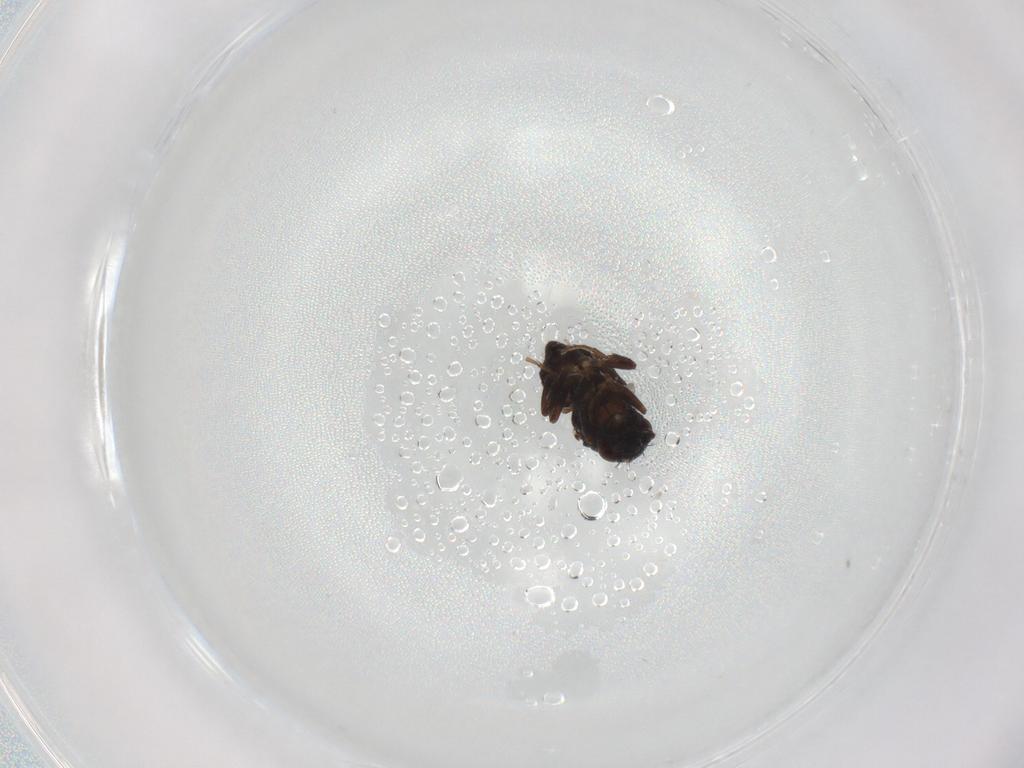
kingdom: Animalia
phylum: Arthropoda
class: Insecta
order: Diptera
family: Sphaeroceridae
